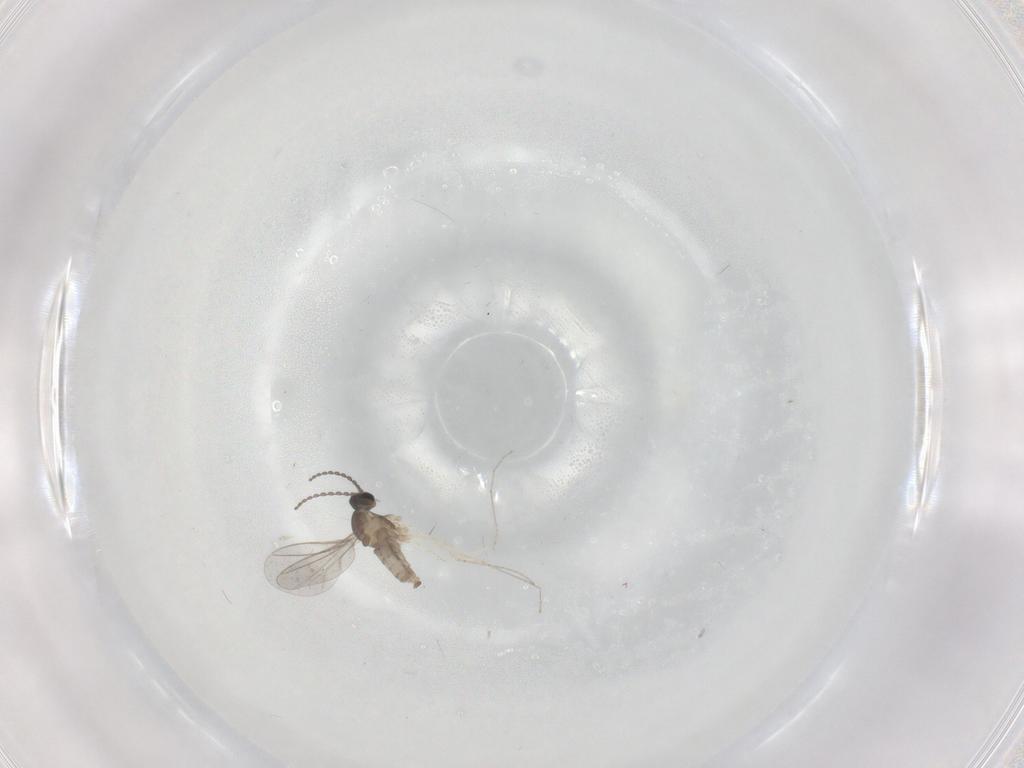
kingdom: Animalia
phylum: Arthropoda
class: Insecta
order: Diptera
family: Cecidomyiidae
